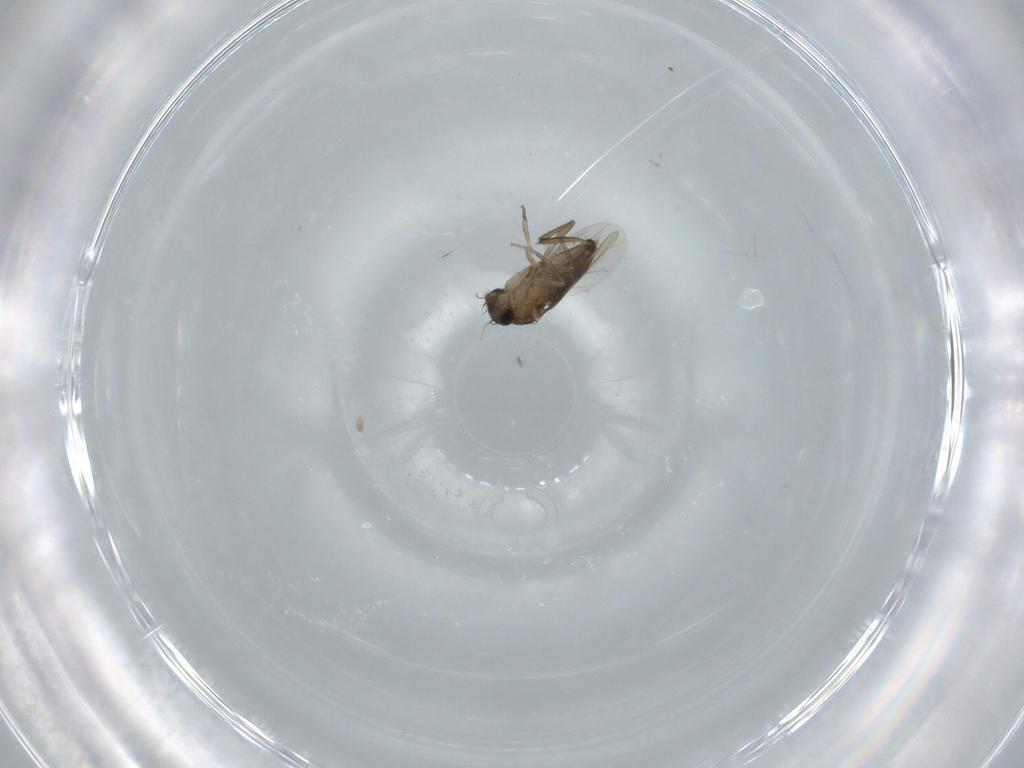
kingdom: Animalia
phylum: Arthropoda
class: Insecta
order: Diptera
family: Phoridae
